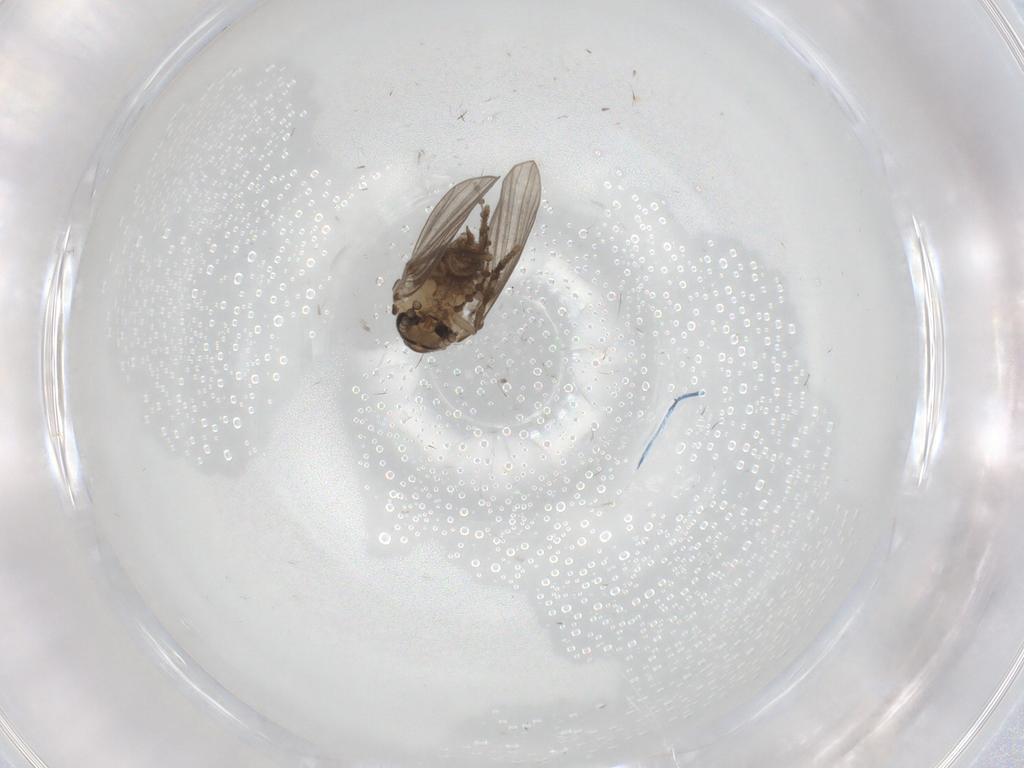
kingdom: Animalia
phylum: Arthropoda
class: Insecta
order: Diptera
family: Psychodidae
